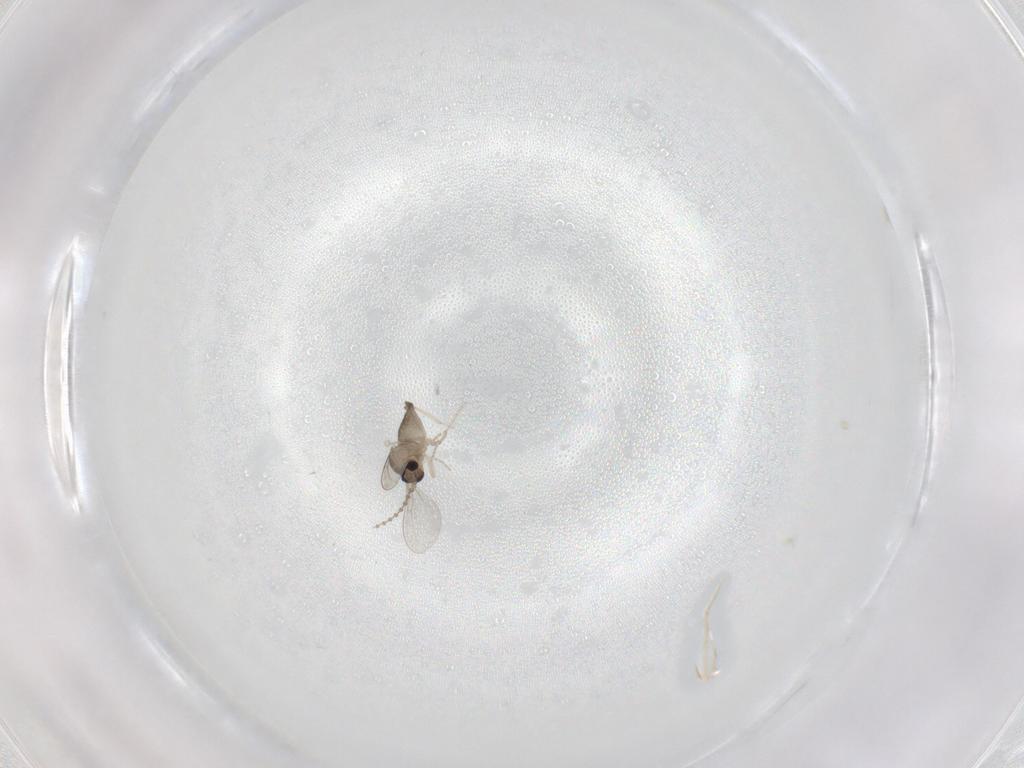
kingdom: Animalia
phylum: Arthropoda
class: Insecta
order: Diptera
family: Cecidomyiidae
